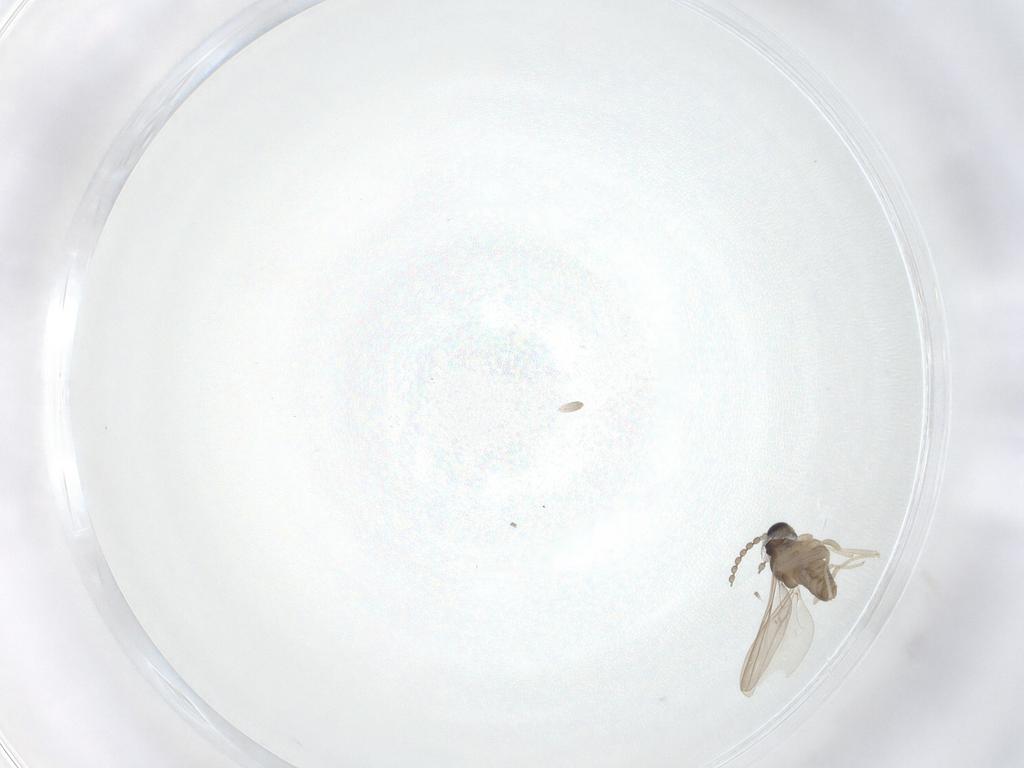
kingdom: Animalia
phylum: Arthropoda
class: Insecta
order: Diptera
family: Cecidomyiidae
